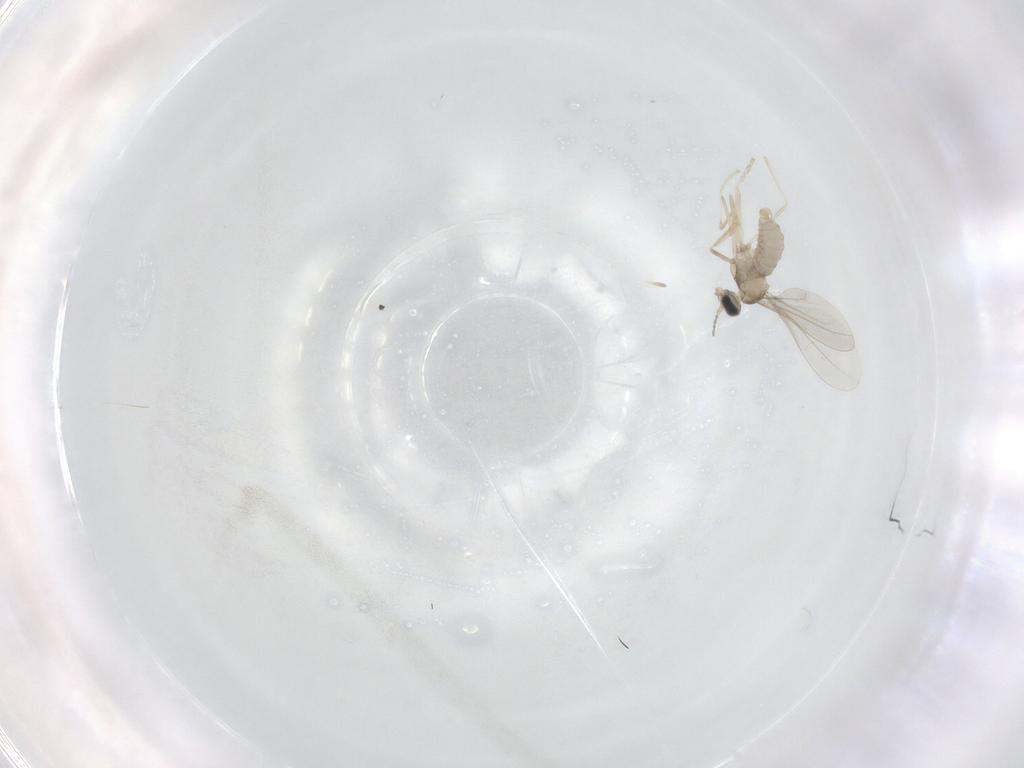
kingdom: Animalia
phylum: Arthropoda
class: Insecta
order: Diptera
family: Cecidomyiidae
